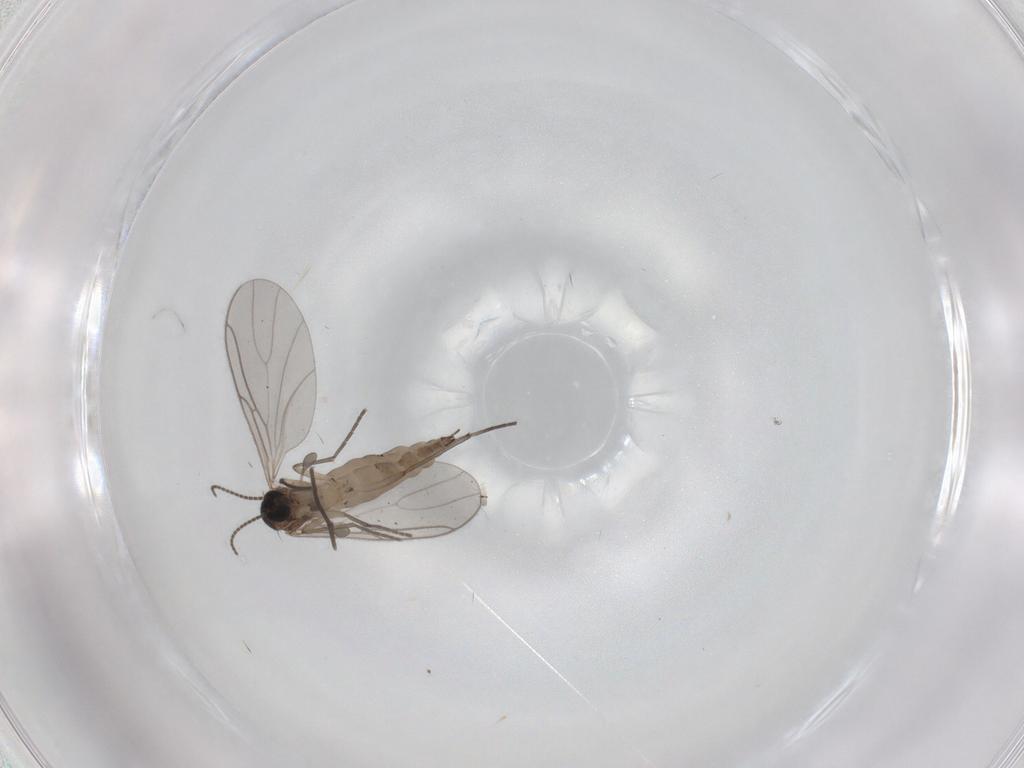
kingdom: Animalia
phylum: Arthropoda
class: Insecta
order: Diptera
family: Sciaridae
